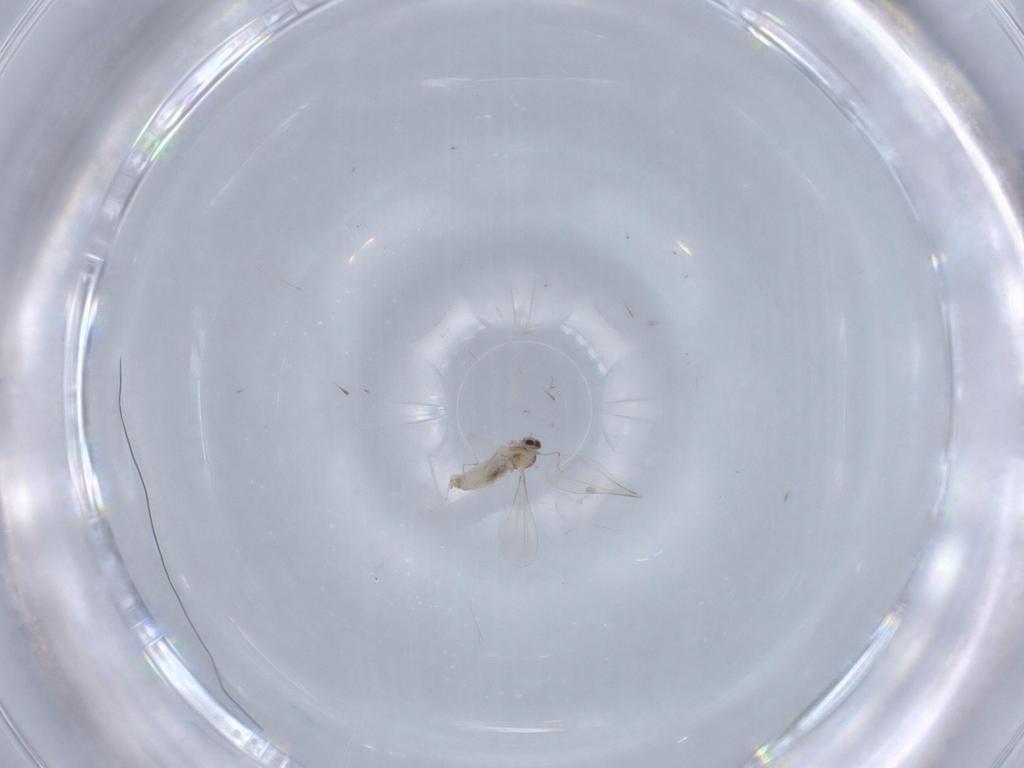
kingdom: Animalia
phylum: Arthropoda
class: Insecta
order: Diptera
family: Cecidomyiidae
